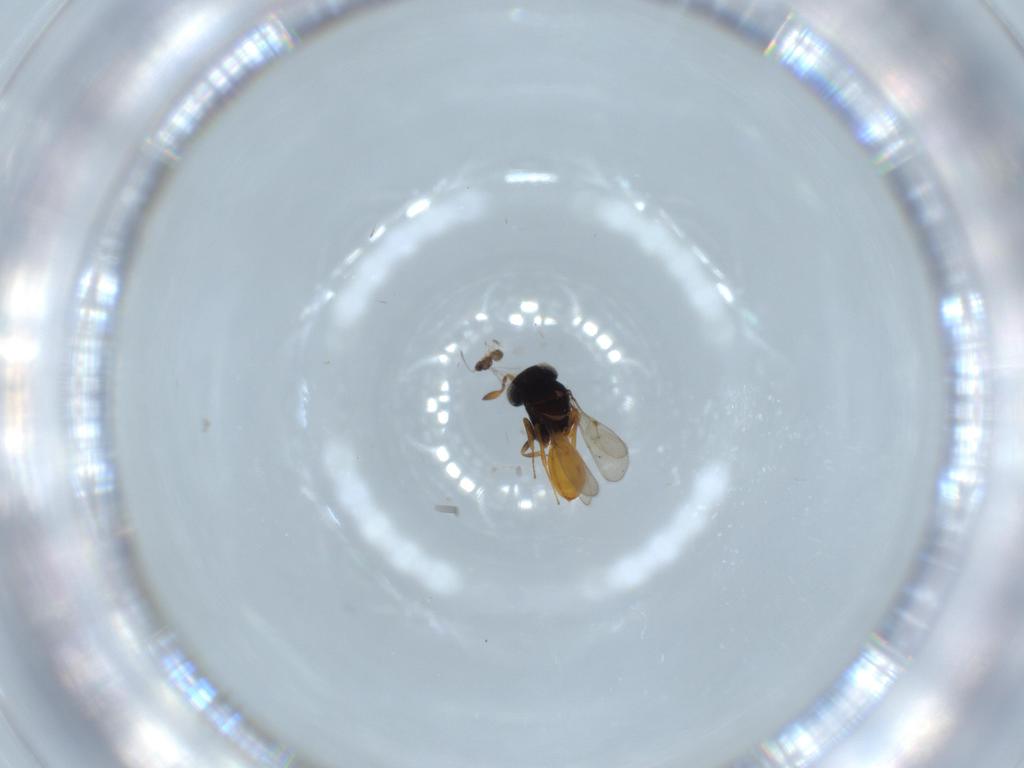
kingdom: Animalia
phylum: Arthropoda
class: Insecta
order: Hymenoptera
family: Scelionidae
